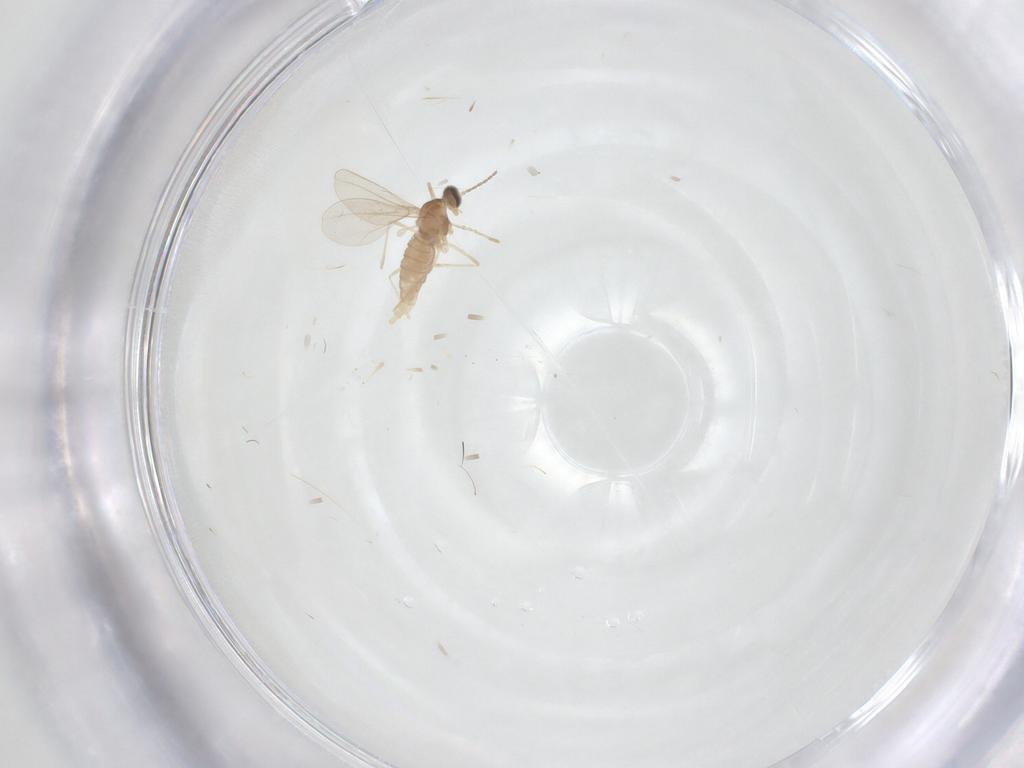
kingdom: Animalia
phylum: Arthropoda
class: Insecta
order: Diptera
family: Cecidomyiidae
